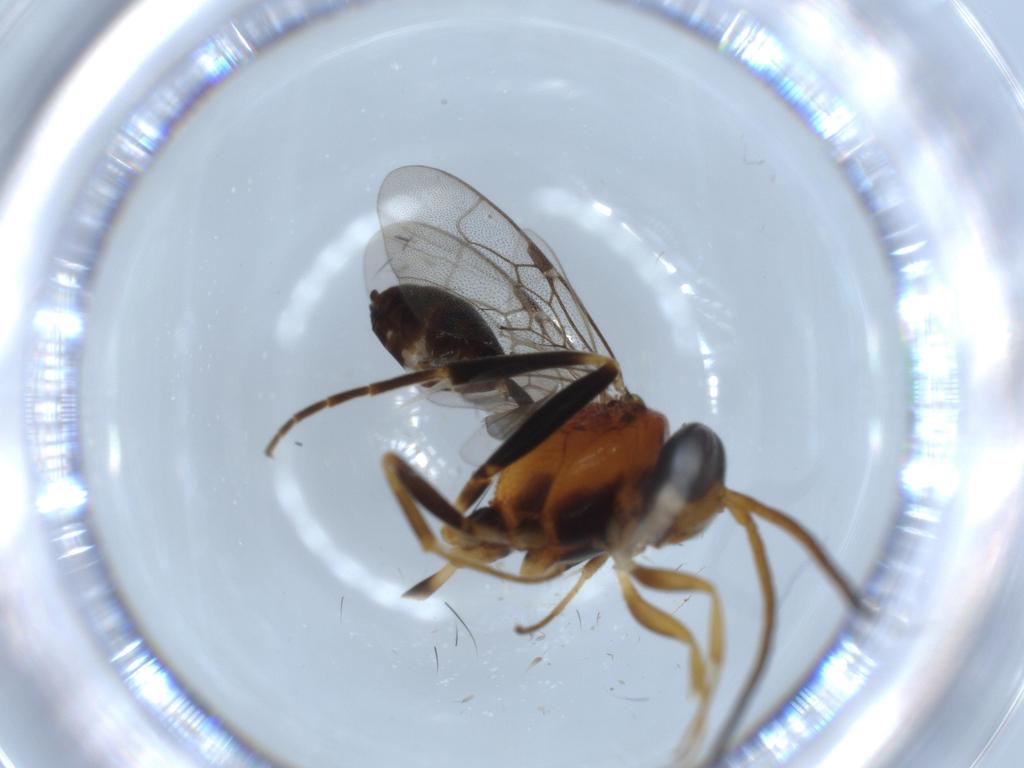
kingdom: Animalia
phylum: Arthropoda
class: Insecta
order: Hymenoptera
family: Evaniidae
